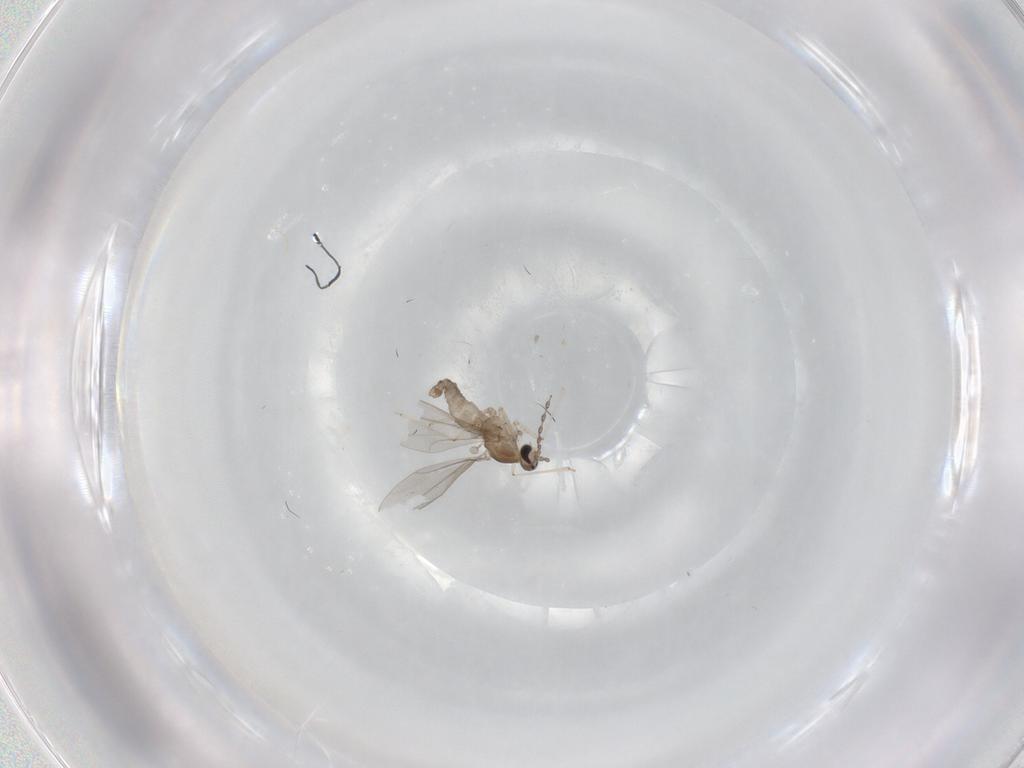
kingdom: Animalia
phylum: Arthropoda
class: Insecta
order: Diptera
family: Cecidomyiidae
